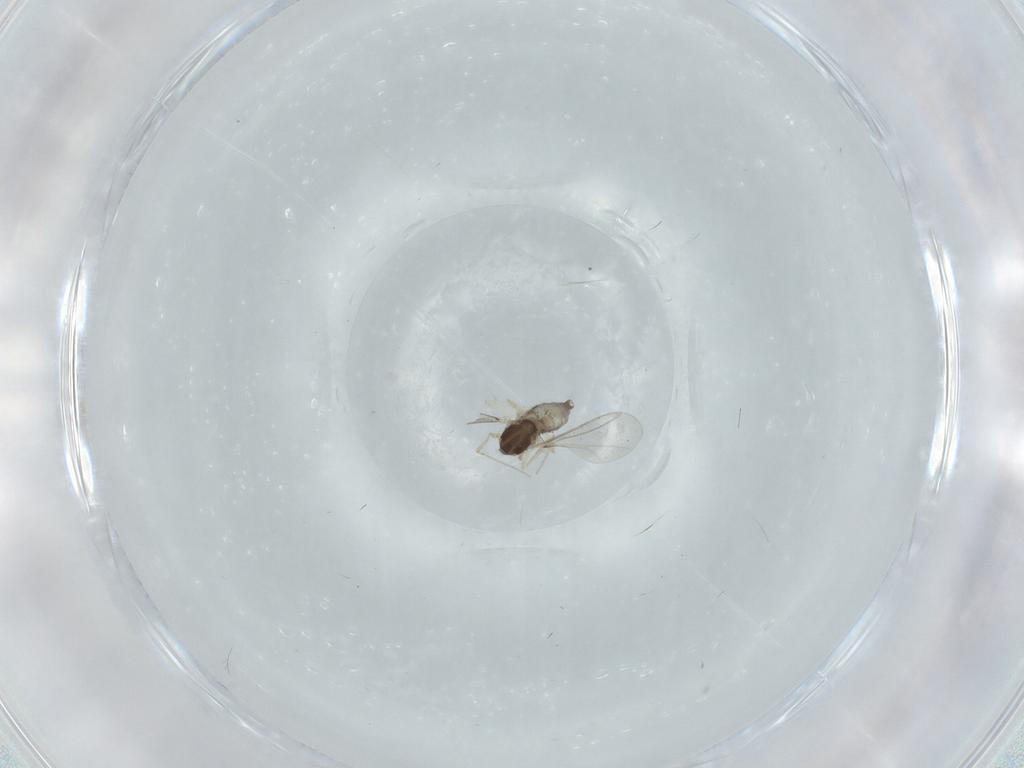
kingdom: Animalia
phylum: Arthropoda
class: Insecta
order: Diptera
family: Cecidomyiidae
